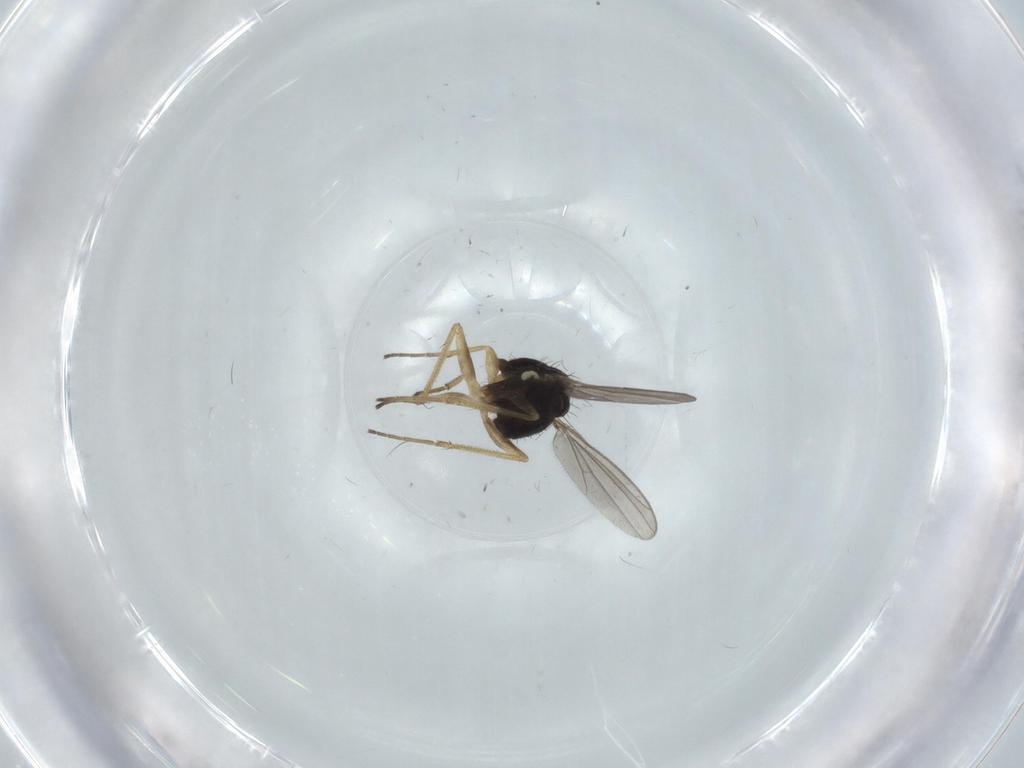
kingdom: Animalia
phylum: Arthropoda
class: Insecta
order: Diptera
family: Dolichopodidae
